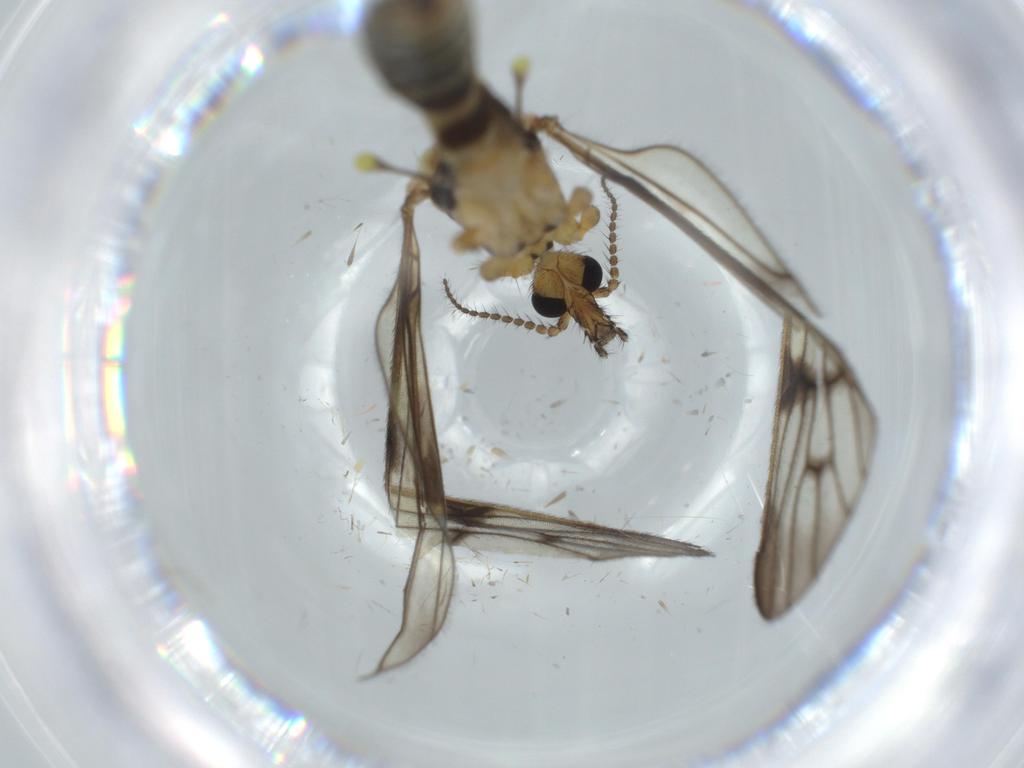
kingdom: Animalia
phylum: Arthropoda
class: Insecta
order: Diptera
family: Limoniidae
